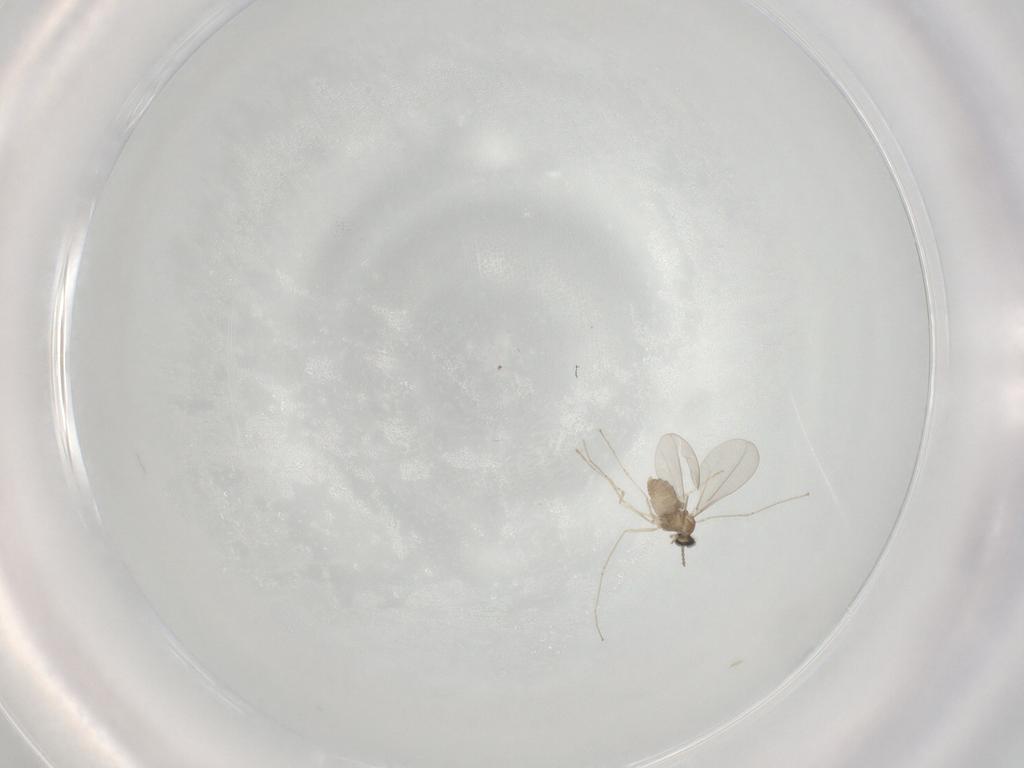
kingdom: Animalia
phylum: Arthropoda
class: Insecta
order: Diptera
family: Cecidomyiidae
